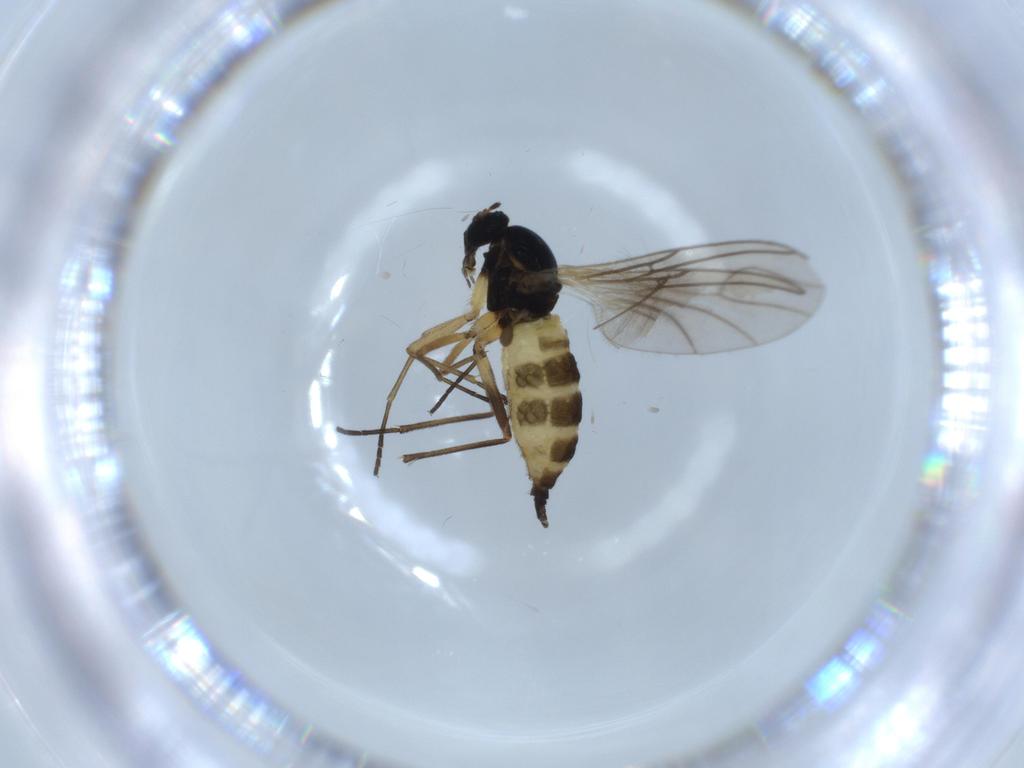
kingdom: Animalia
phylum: Arthropoda
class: Insecta
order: Diptera
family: Sciaridae
